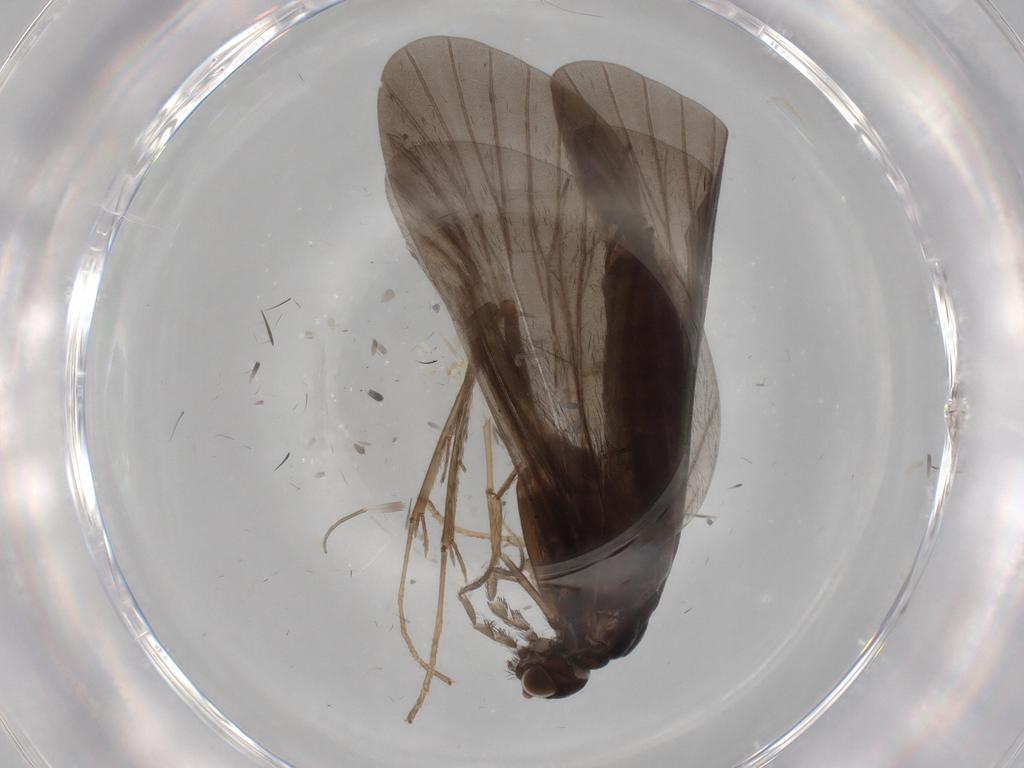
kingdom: Animalia
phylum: Arthropoda
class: Insecta
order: Trichoptera
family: Hydropsychidae
